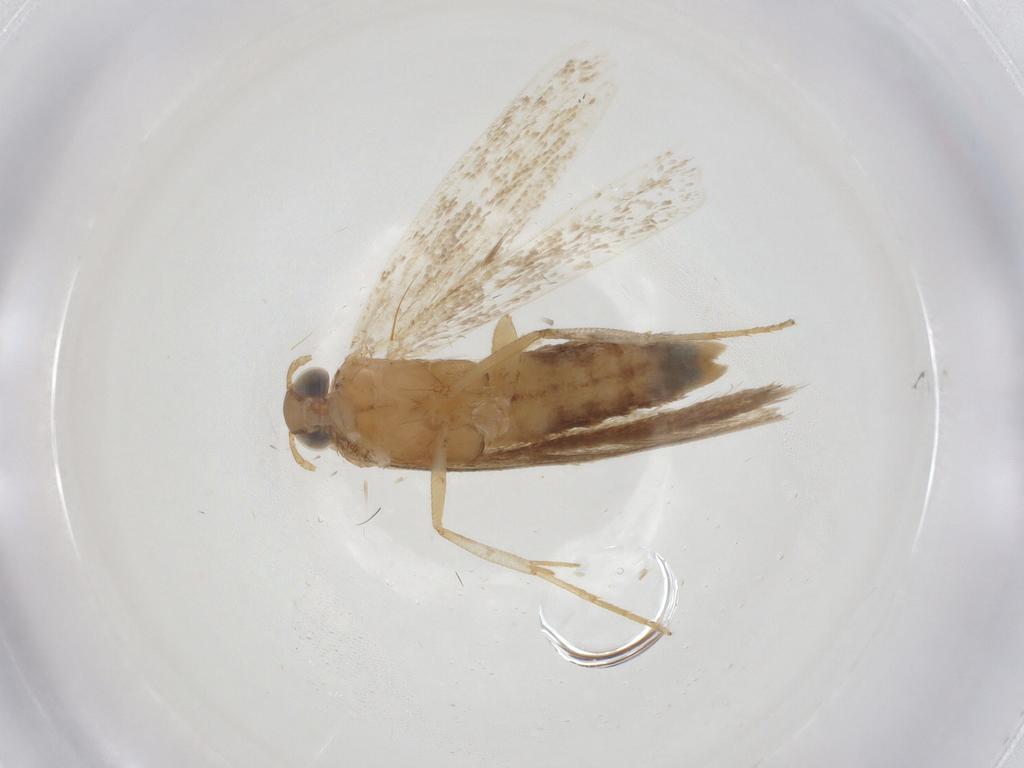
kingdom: Animalia
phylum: Arthropoda
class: Insecta
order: Lepidoptera
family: Gelechiidae
